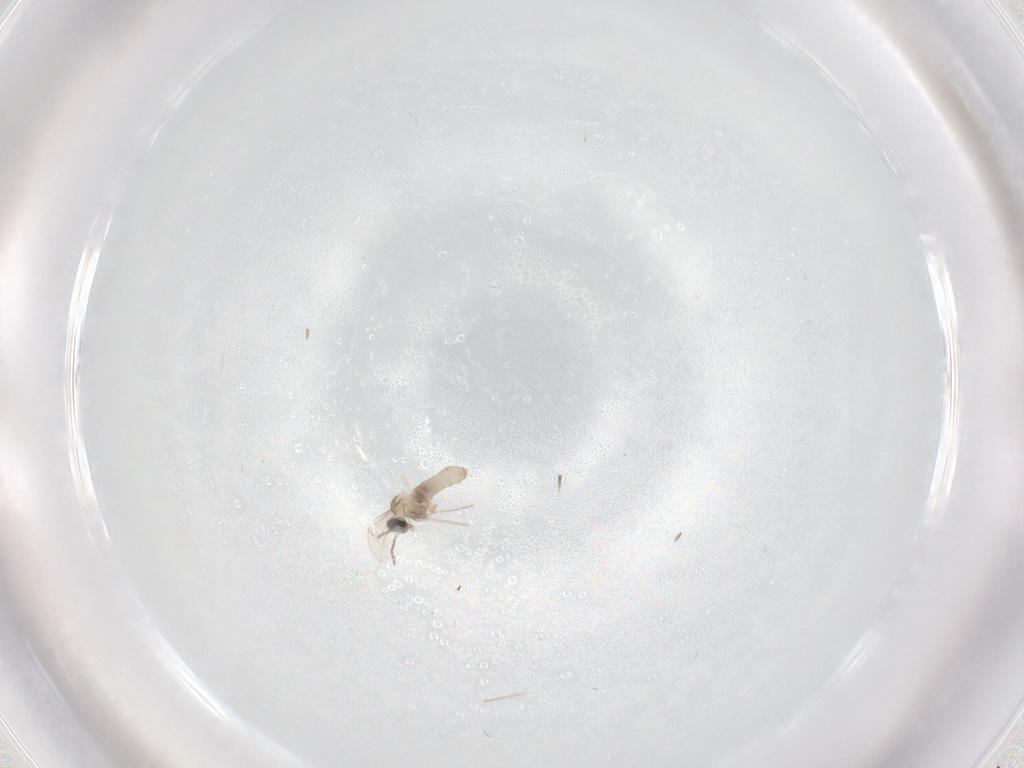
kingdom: Animalia
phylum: Arthropoda
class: Insecta
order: Diptera
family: Cecidomyiidae
